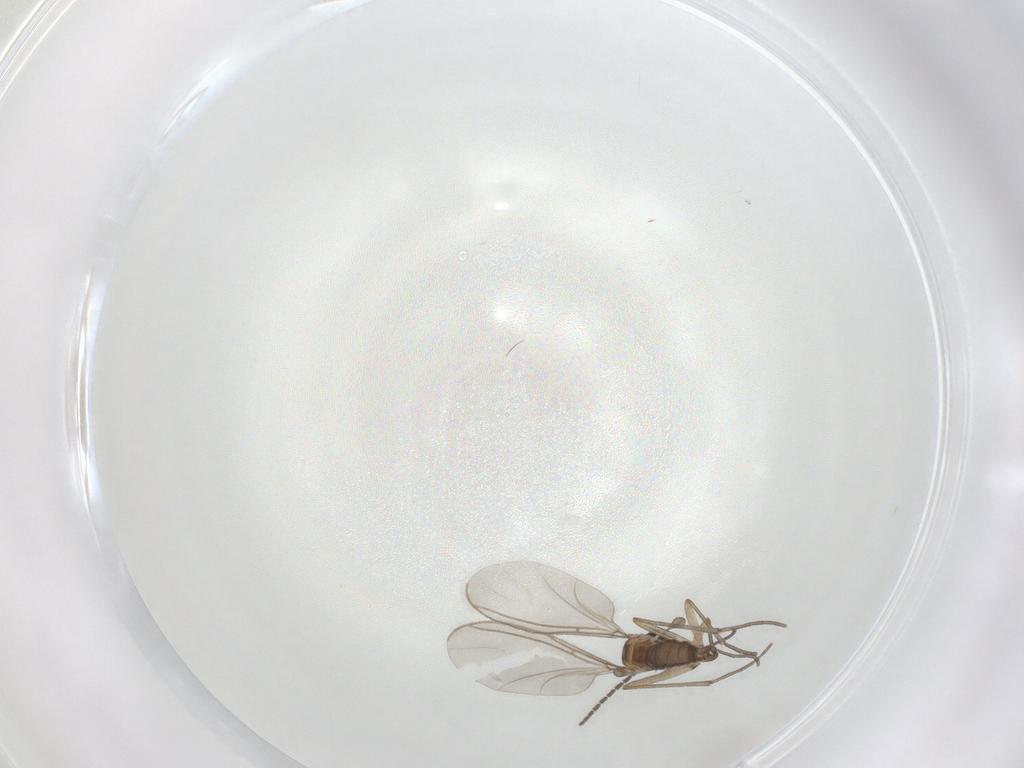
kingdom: Animalia
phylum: Arthropoda
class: Insecta
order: Diptera
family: Sciaridae
